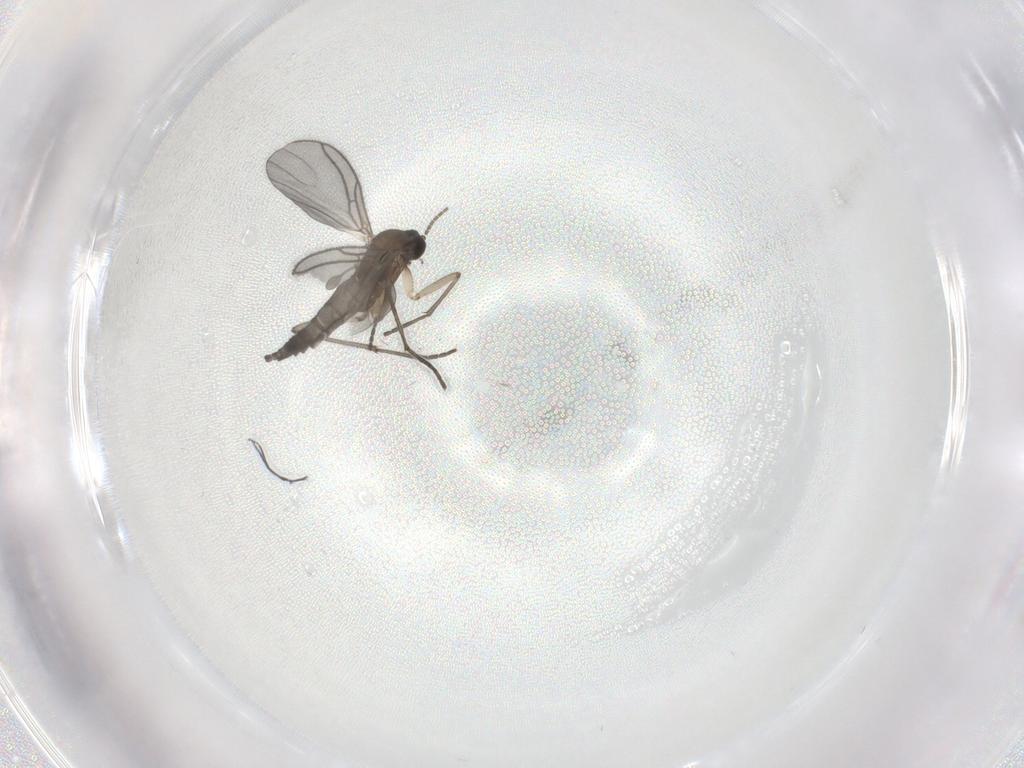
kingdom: Animalia
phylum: Arthropoda
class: Insecta
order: Diptera
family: Sciaridae
